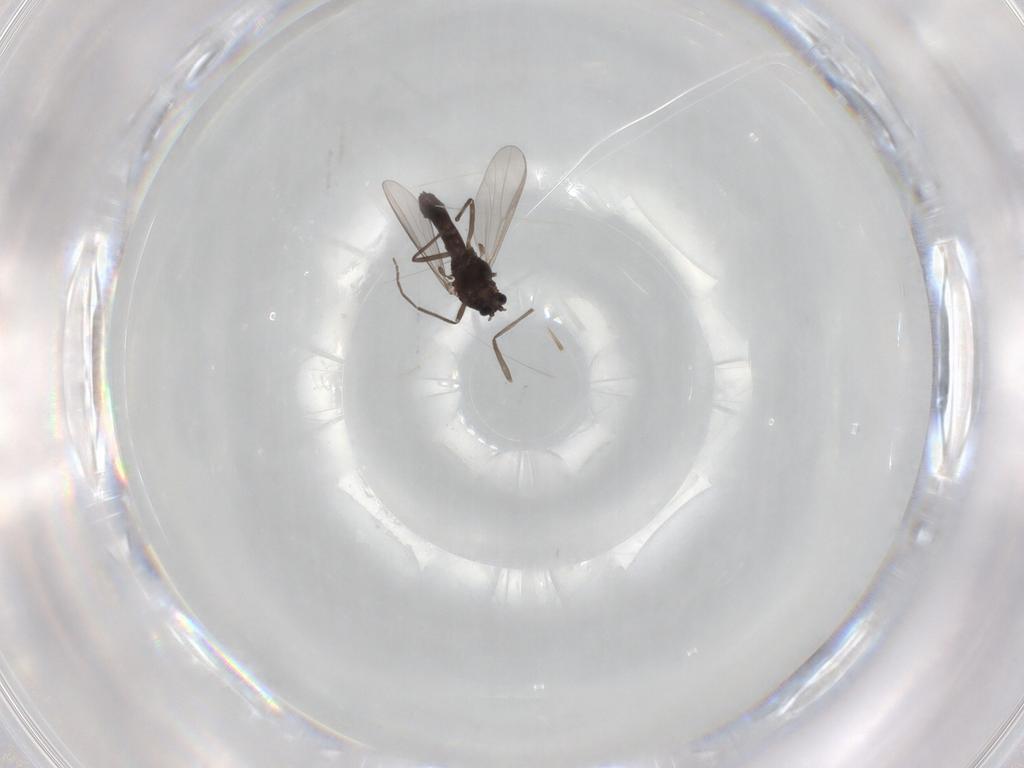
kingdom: Animalia
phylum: Arthropoda
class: Insecta
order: Diptera
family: Chironomidae
